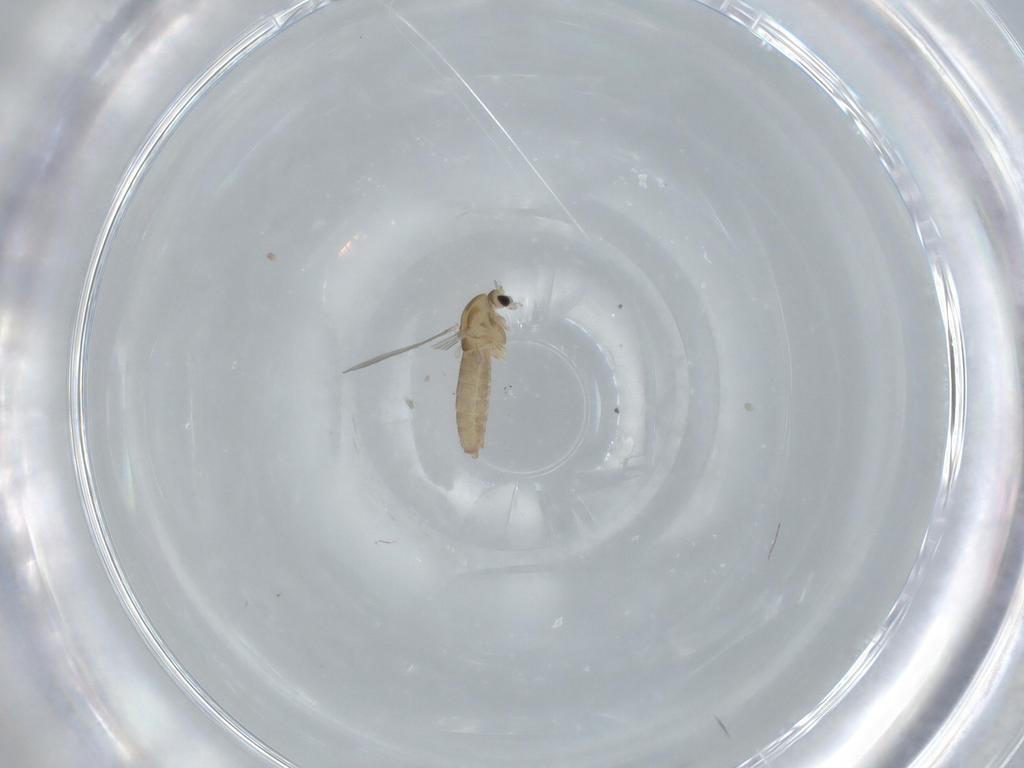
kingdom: Animalia
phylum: Arthropoda
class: Insecta
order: Diptera
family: Chironomidae
